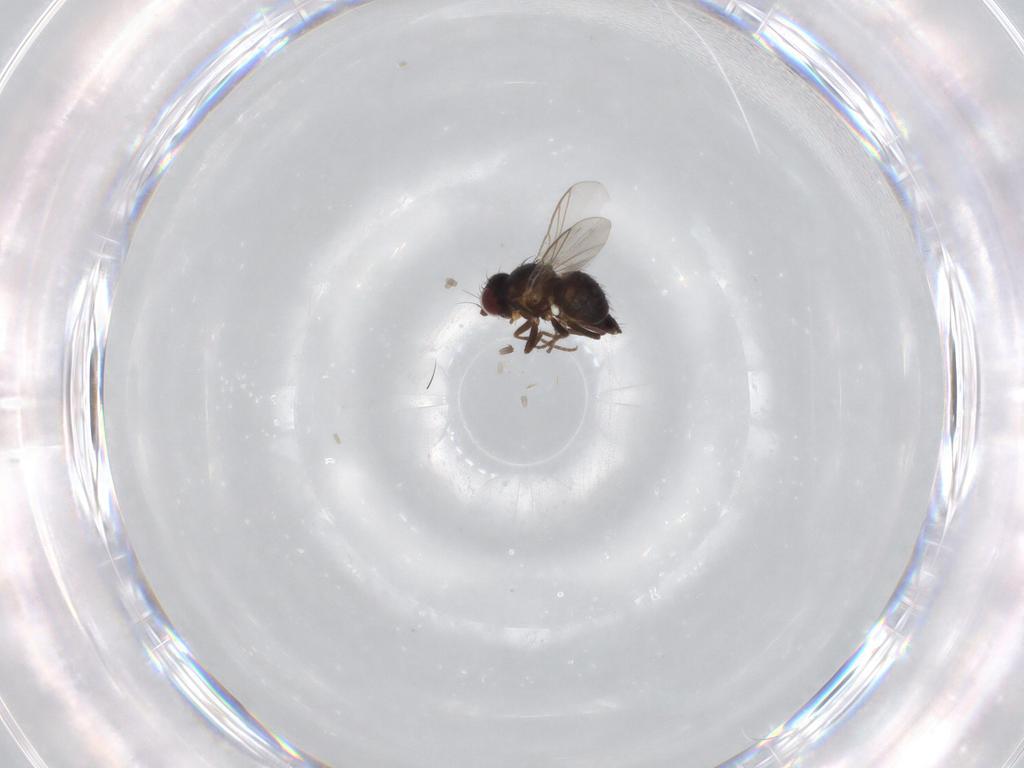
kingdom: Animalia
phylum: Arthropoda
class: Insecta
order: Diptera
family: Ceratopogonidae
